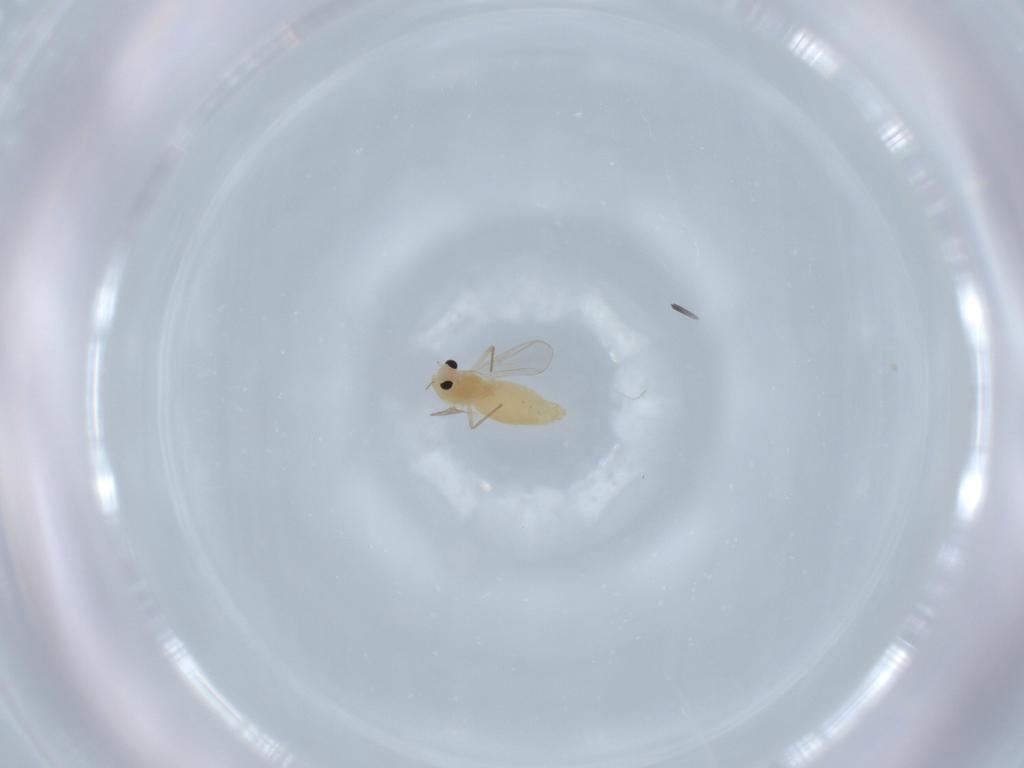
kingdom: Animalia
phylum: Arthropoda
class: Insecta
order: Diptera
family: Chironomidae
